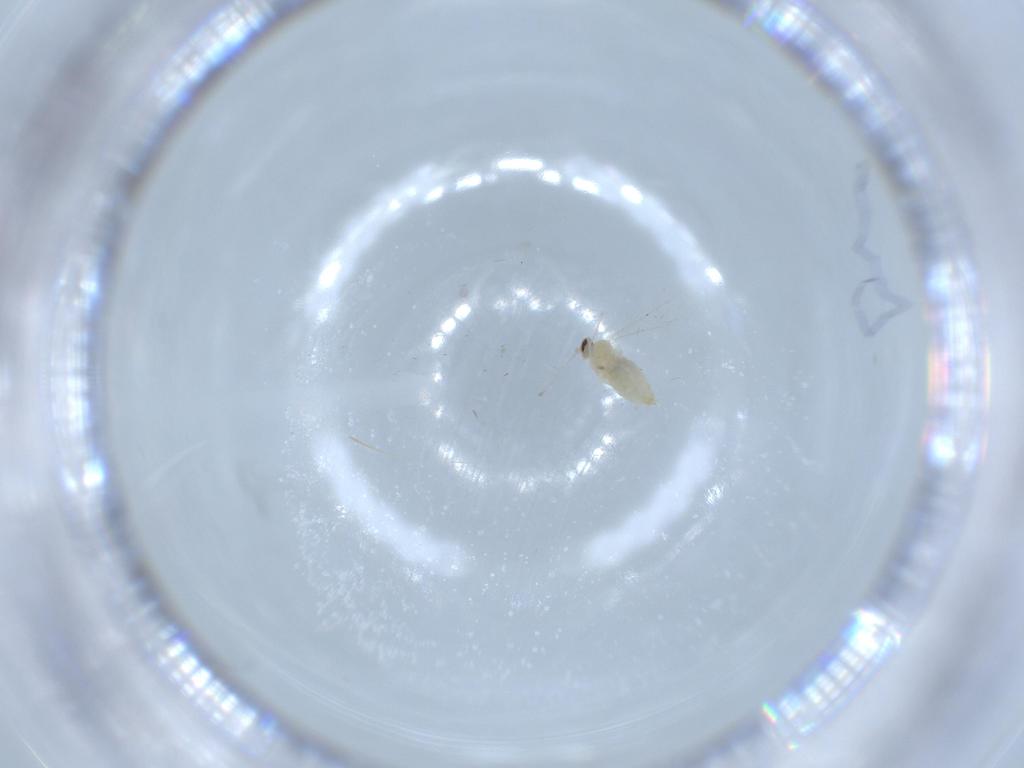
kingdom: Animalia
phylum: Arthropoda
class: Insecta
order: Diptera
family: Cecidomyiidae
